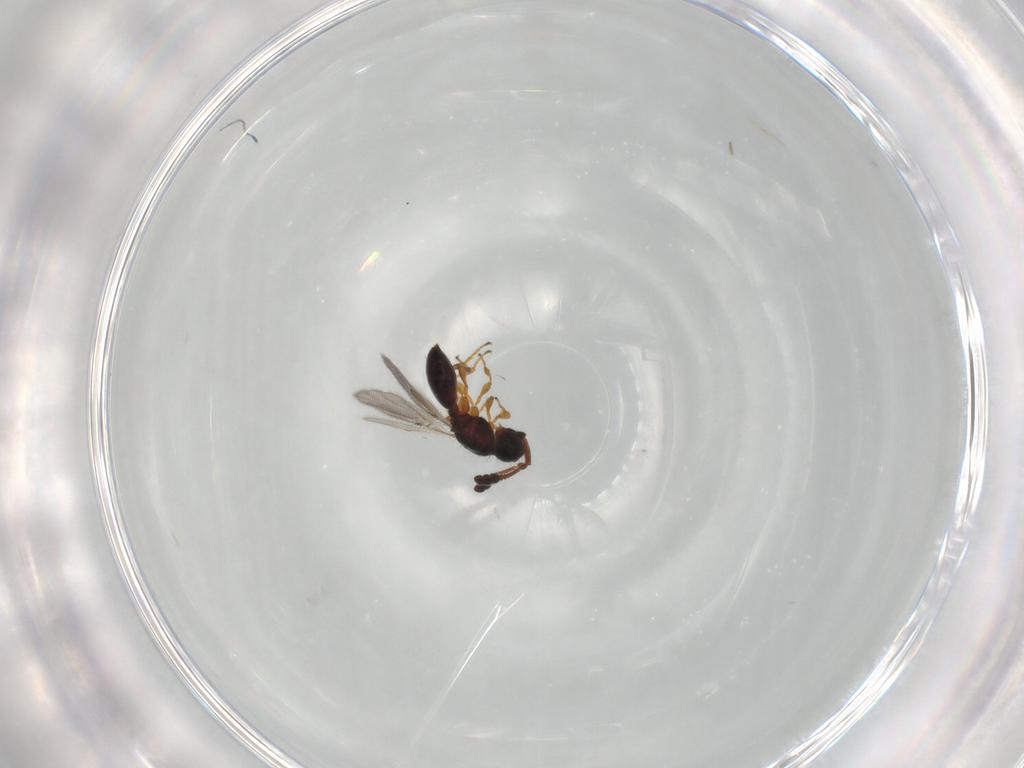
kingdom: Animalia
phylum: Arthropoda
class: Insecta
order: Hymenoptera
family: Diapriidae
